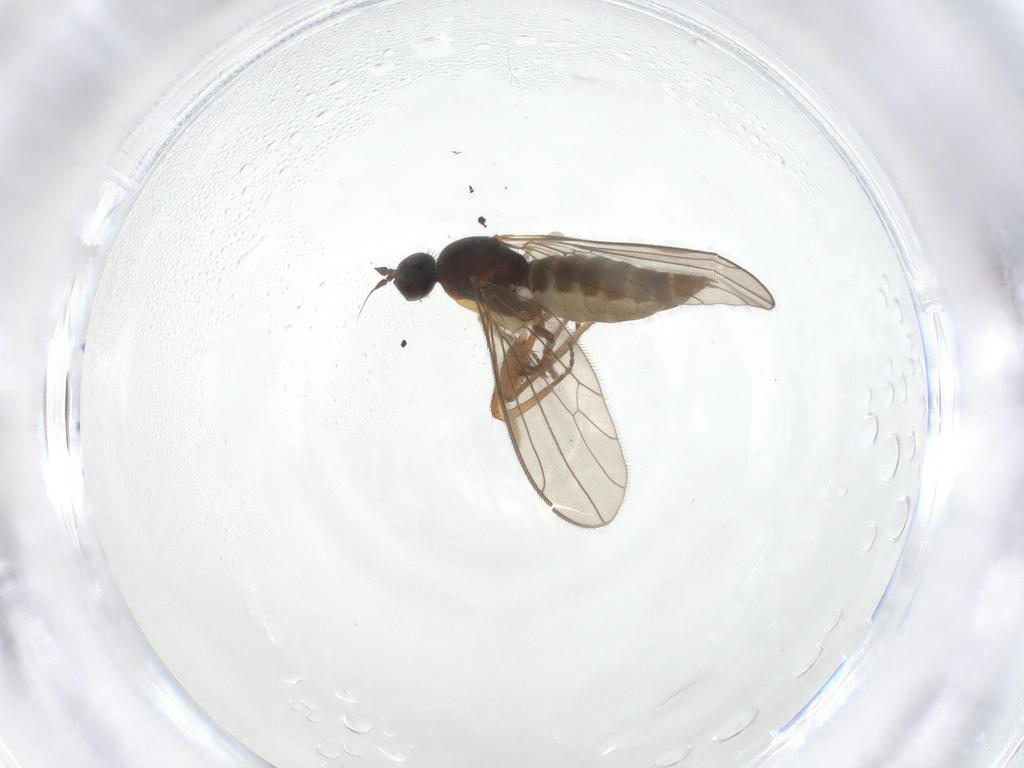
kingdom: Animalia
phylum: Arthropoda
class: Insecta
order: Diptera
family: Empididae
